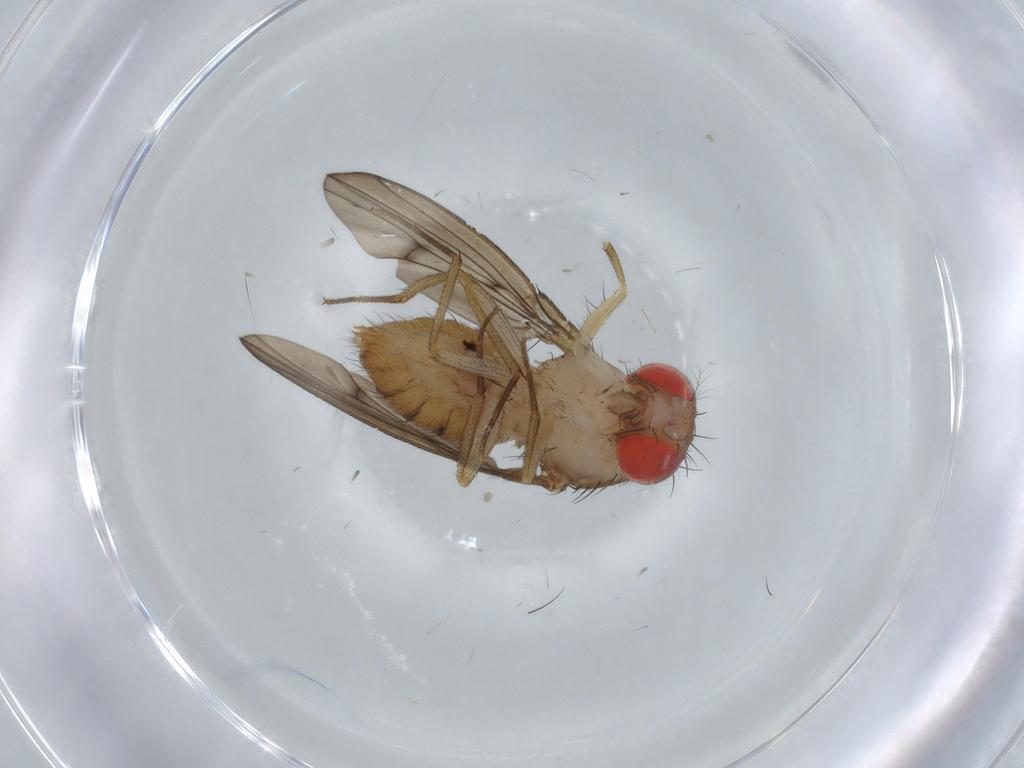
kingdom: Animalia
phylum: Arthropoda
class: Insecta
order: Diptera
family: Drosophilidae
